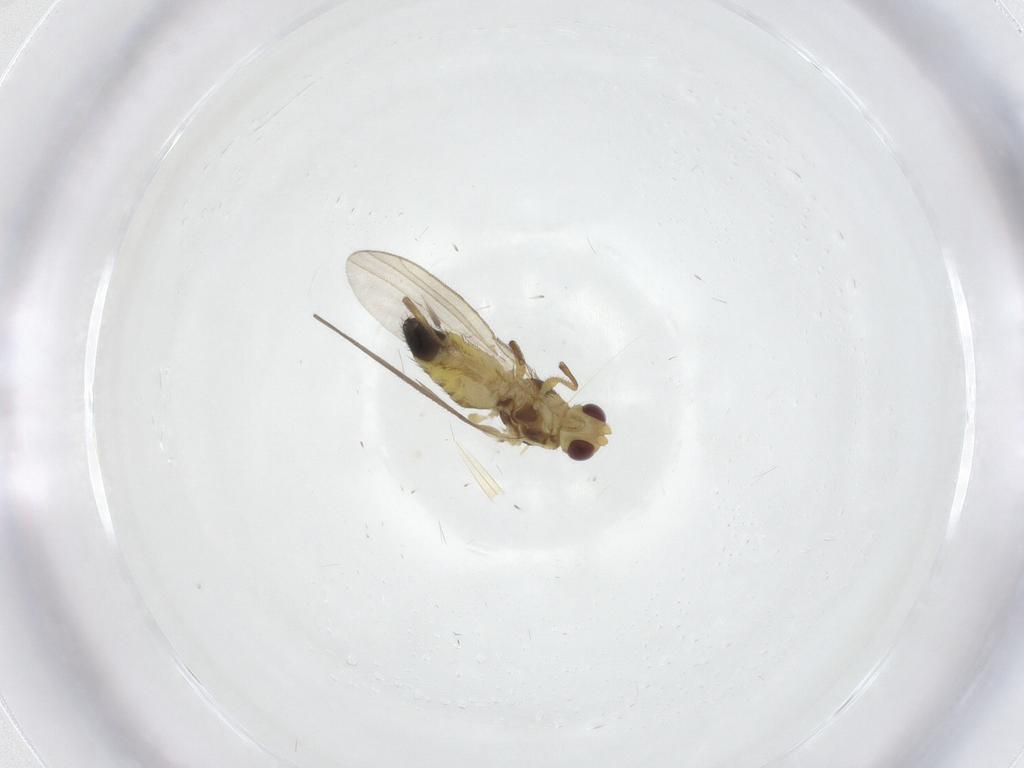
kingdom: Animalia
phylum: Arthropoda
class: Insecta
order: Diptera
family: Agromyzidae
